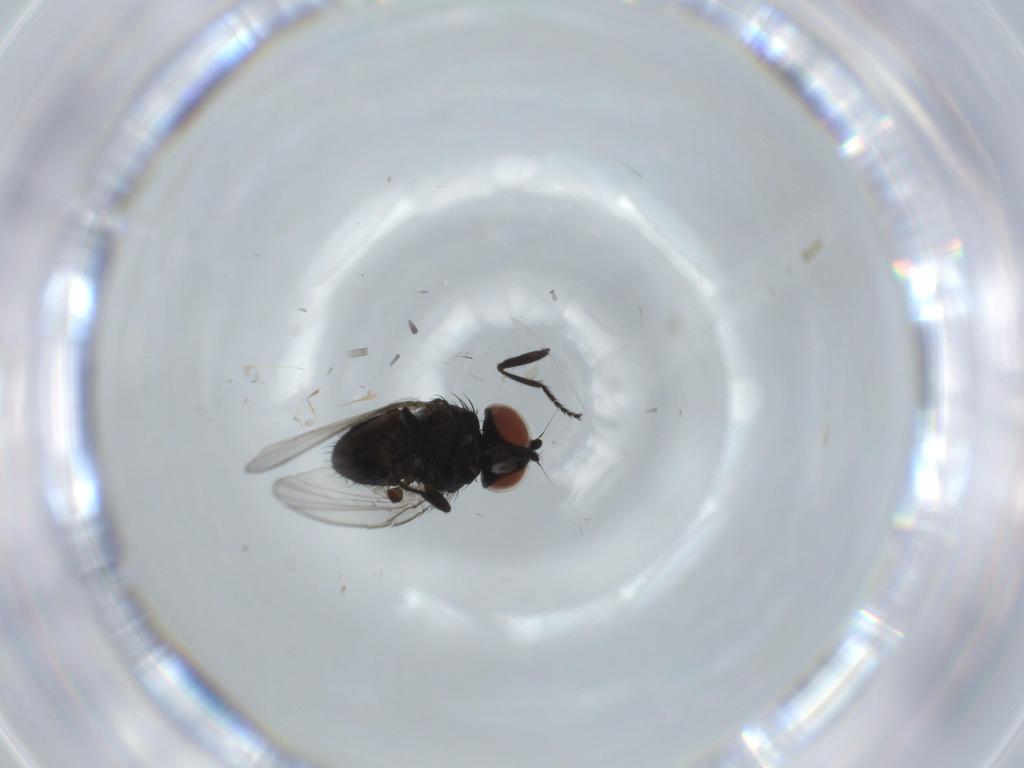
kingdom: Animalia
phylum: Arthropoda
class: Insecta
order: Diptera
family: Milichiidae
